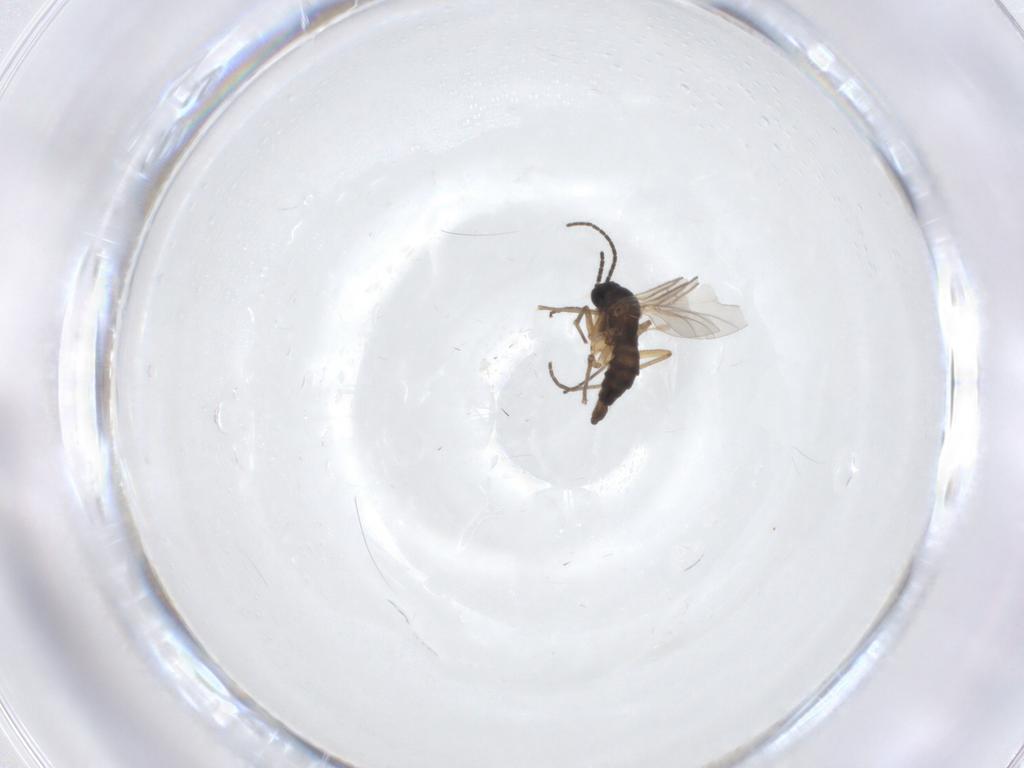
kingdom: Animalia
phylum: Arthropoda
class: Insecta
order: Diptera
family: Sciaridae
